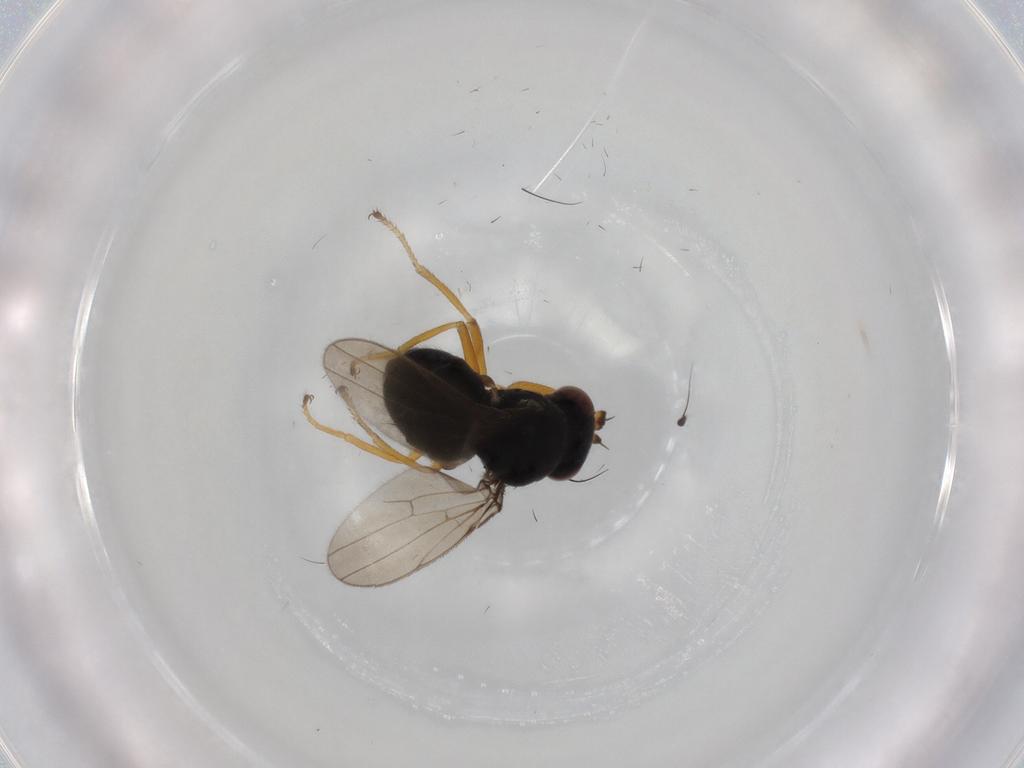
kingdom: Animalia
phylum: Arthropoda
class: Insecta
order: Diptera
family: Ephydridae
